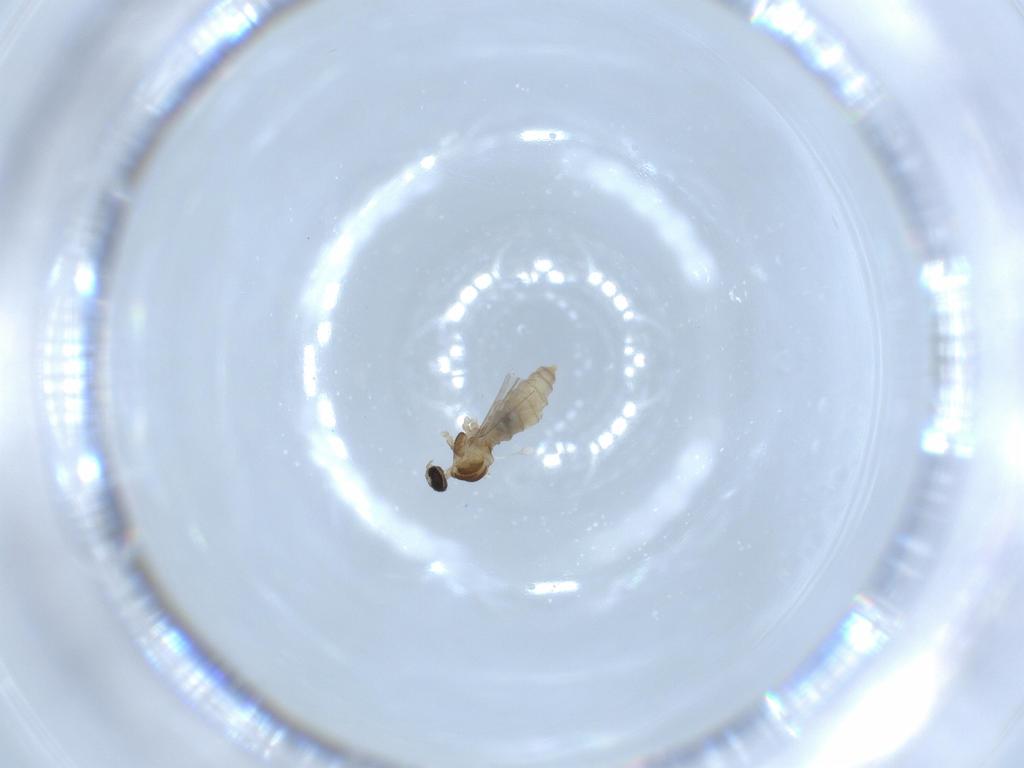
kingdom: Animalia
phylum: Arthropoda
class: Insecta
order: Diptera
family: Cecidomyiidae
